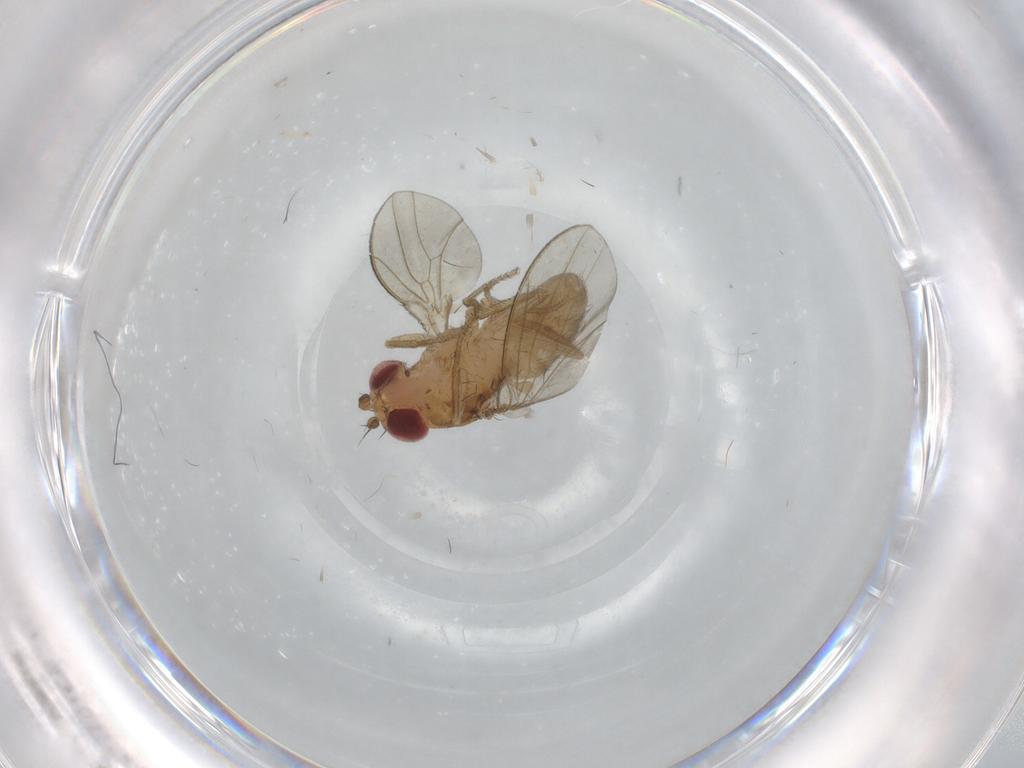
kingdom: Animalia
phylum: Arthropoda
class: Insecta
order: Diptera
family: Drosophilidae
